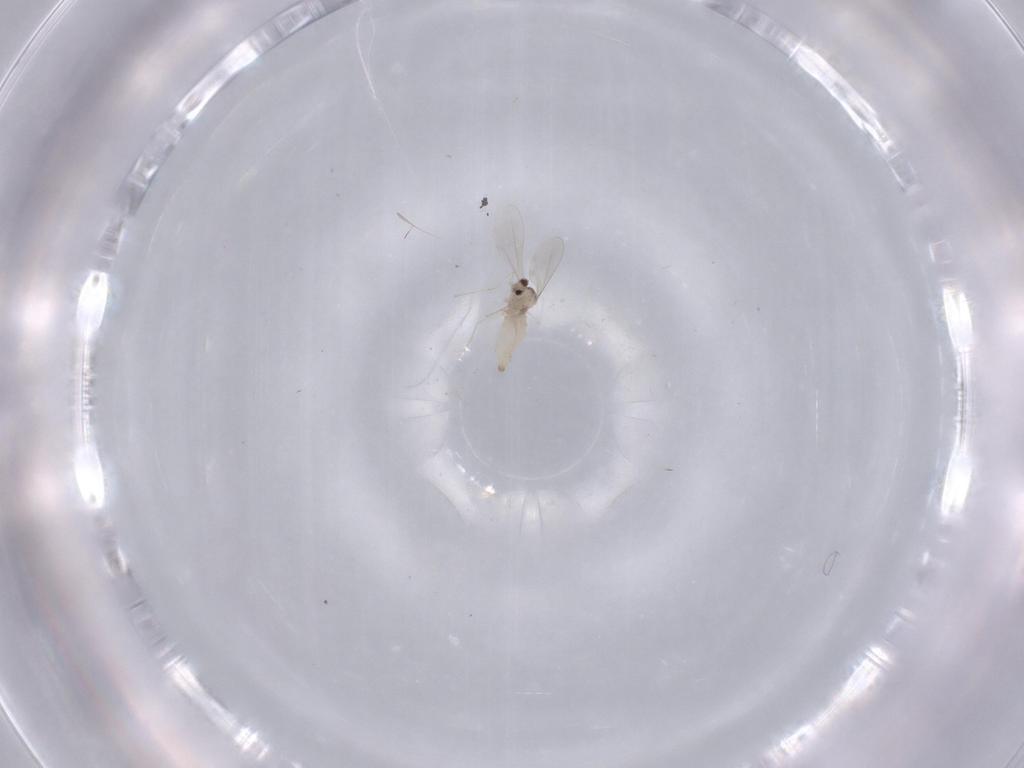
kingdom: Animalia
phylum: Arthropoda
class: Insecta
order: Diptera
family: Cecidomyiidae
